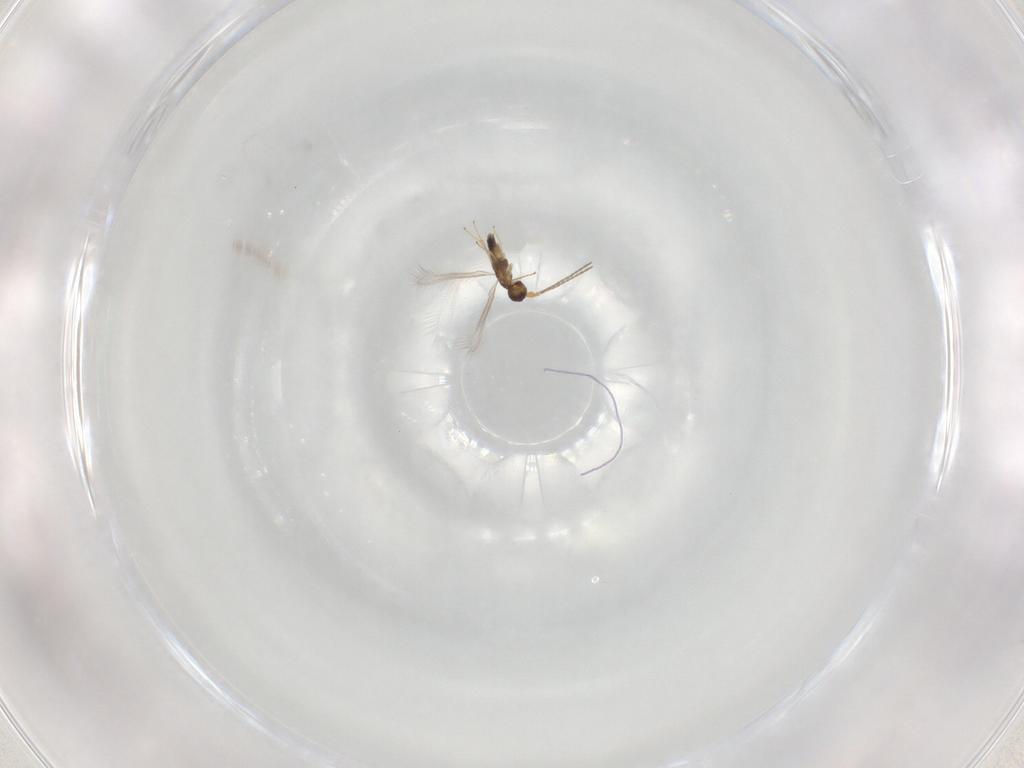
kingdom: Animalia
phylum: Arthropoda
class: Insecta
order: Hymenoptera
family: Mymaridae
